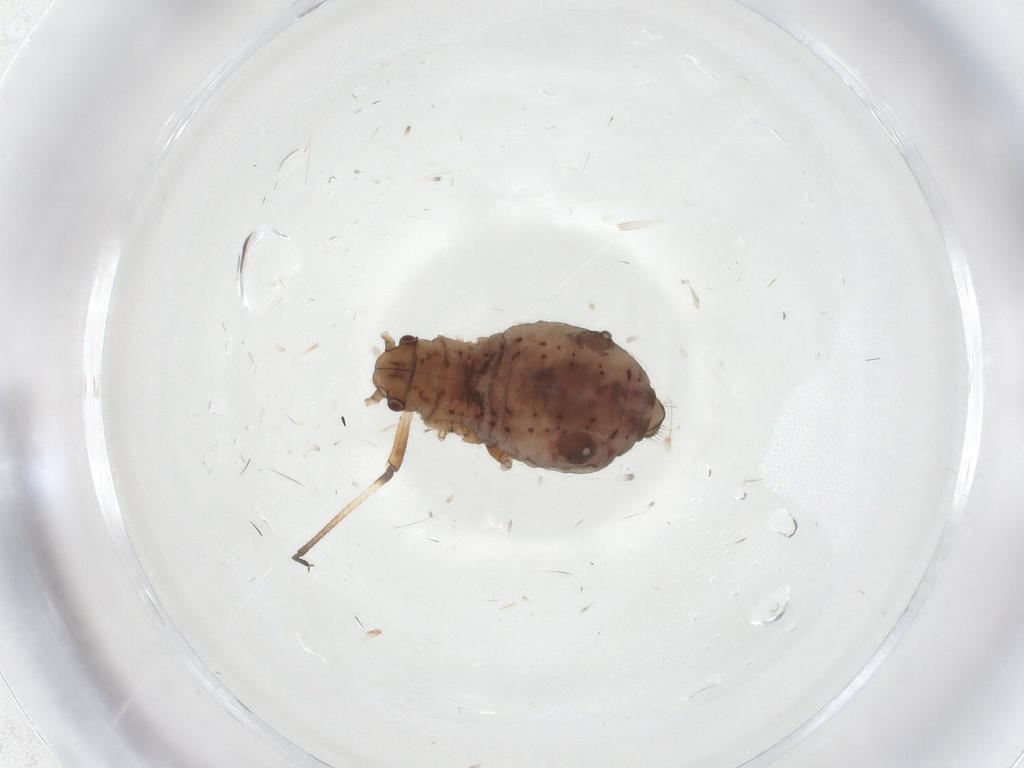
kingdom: Animalia
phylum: Arthropoda
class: Insecta
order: Hemiptera
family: Aphididae
